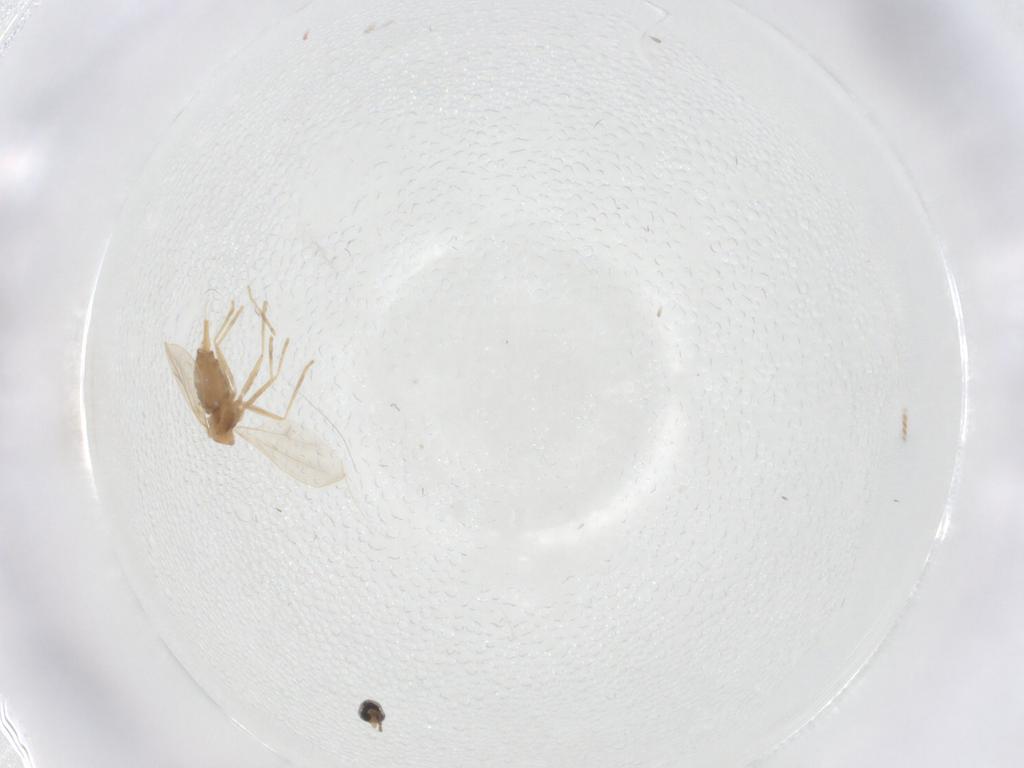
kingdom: Animalia
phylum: Arthropoda
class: Insecta
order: Diptera
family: Cecidomyiidae
